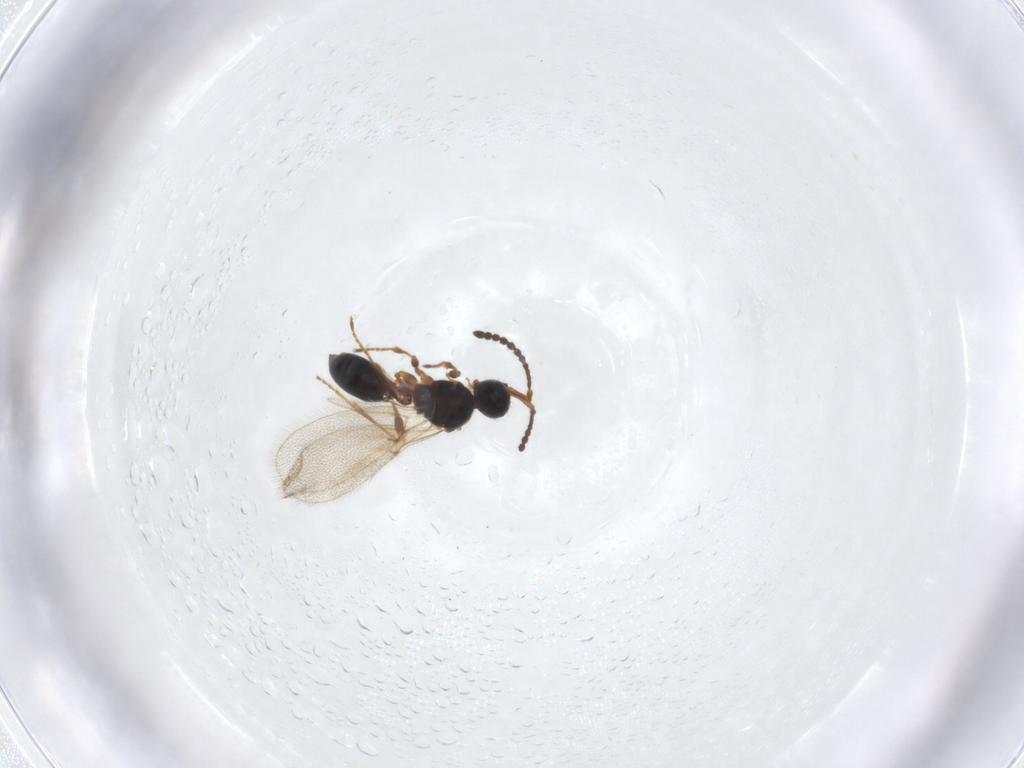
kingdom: Animalia
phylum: Arthropoda
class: Insecta
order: Hymenoptera
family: Diapriidae
